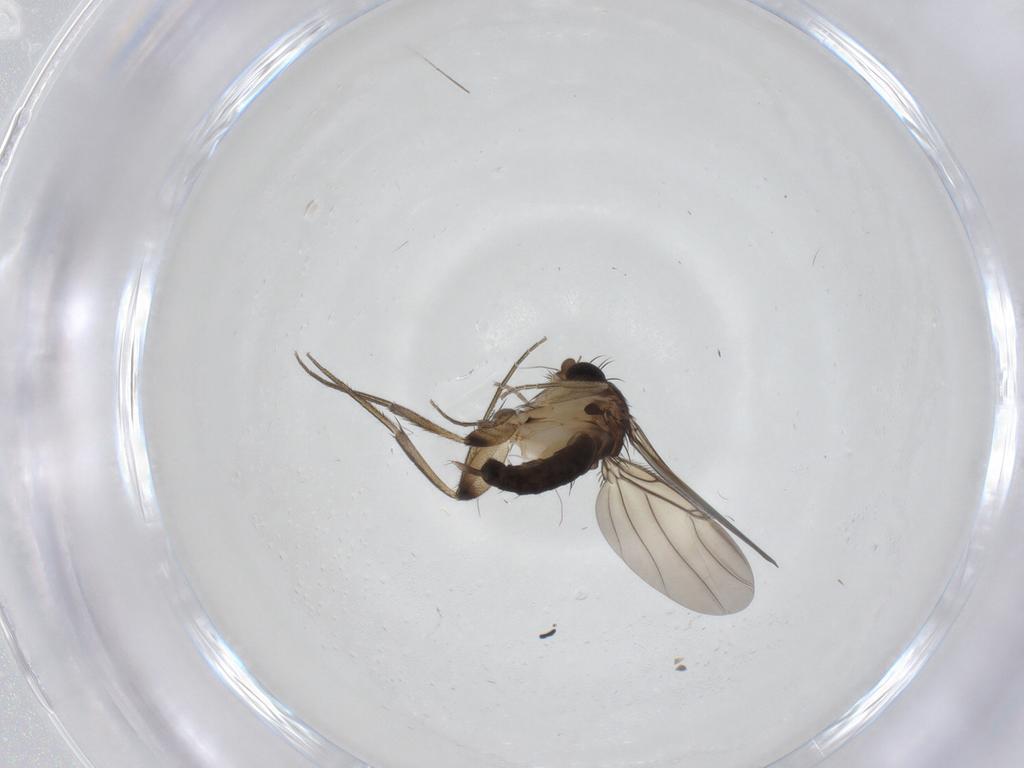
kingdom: Animalia
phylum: Arthropoda
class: Insecta
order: Diptera
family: Phoridae
